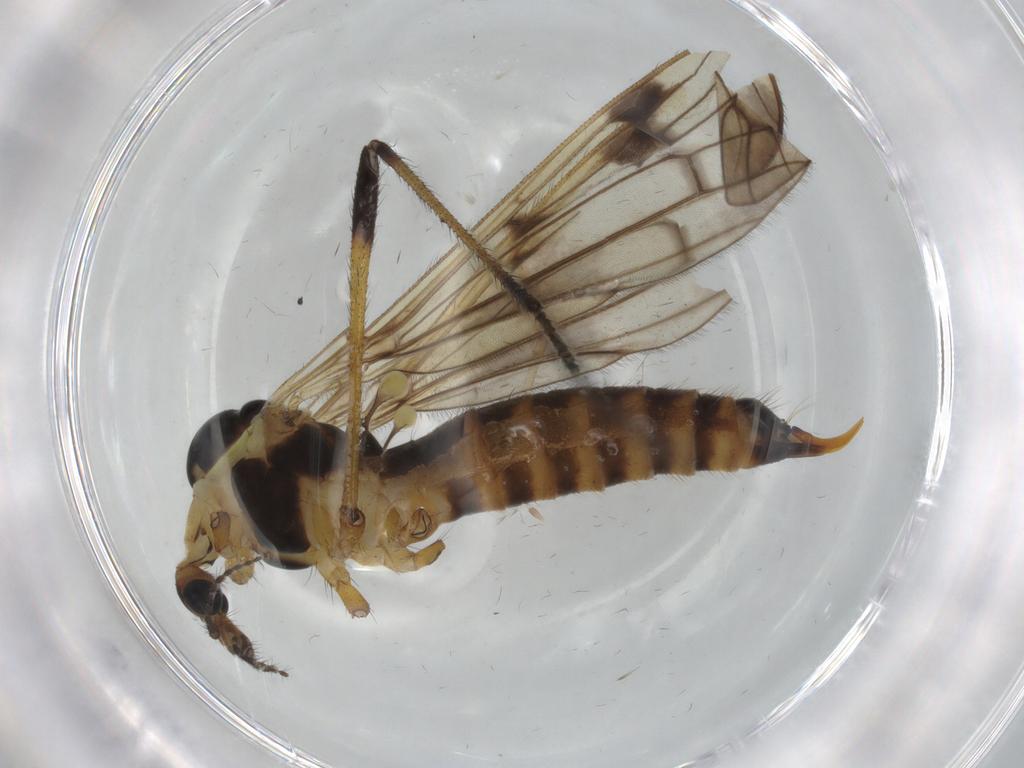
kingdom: Animalia
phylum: Arthropoda
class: Insecta
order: Diptera
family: Limoniidae
